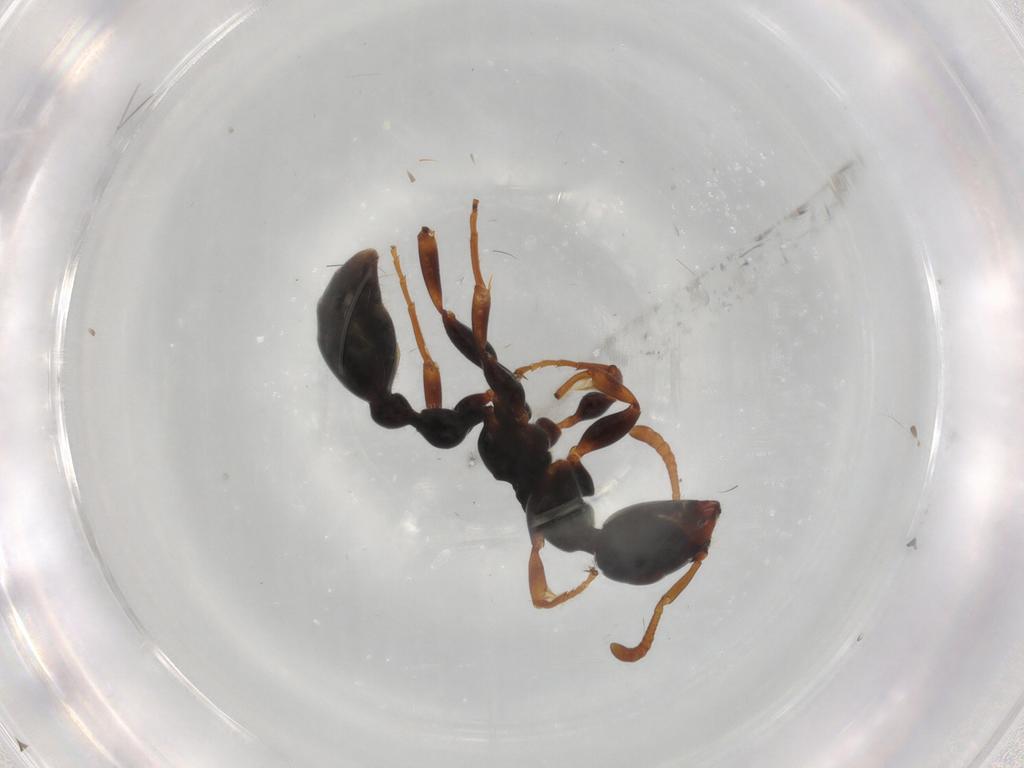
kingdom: Animalia
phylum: Arthropoda
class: Insecta
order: Hymenoptera
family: Formicidae
